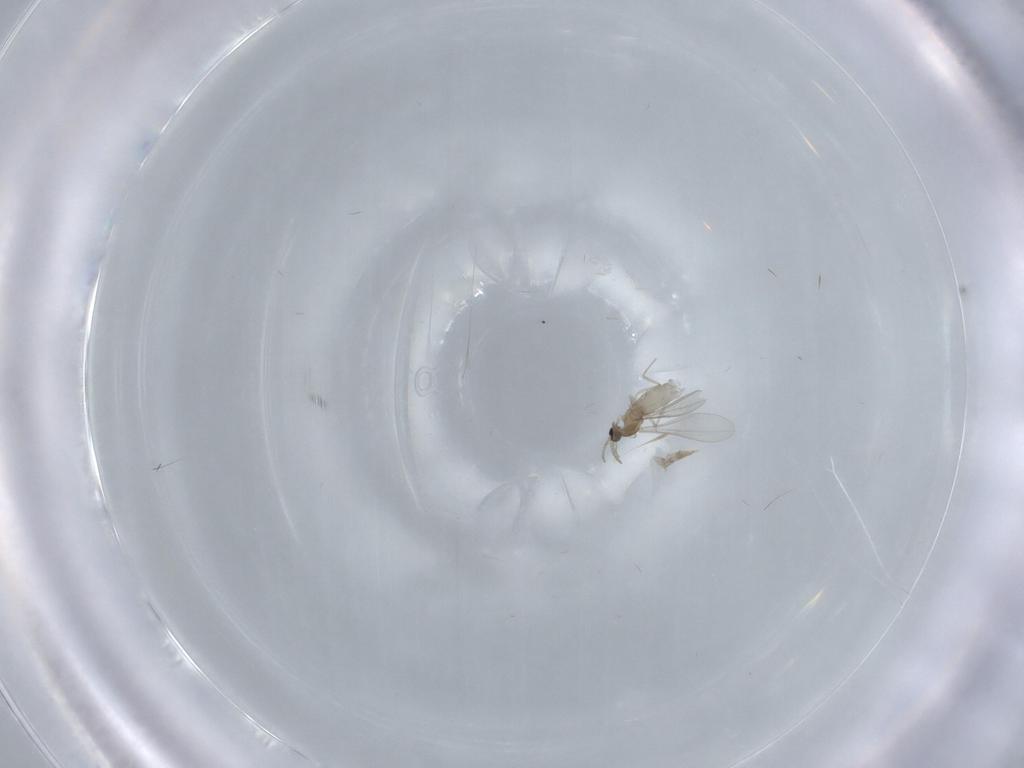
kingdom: Animalia
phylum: Arthropoda
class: Insecta
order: Diptera
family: Cecidomyiidae
